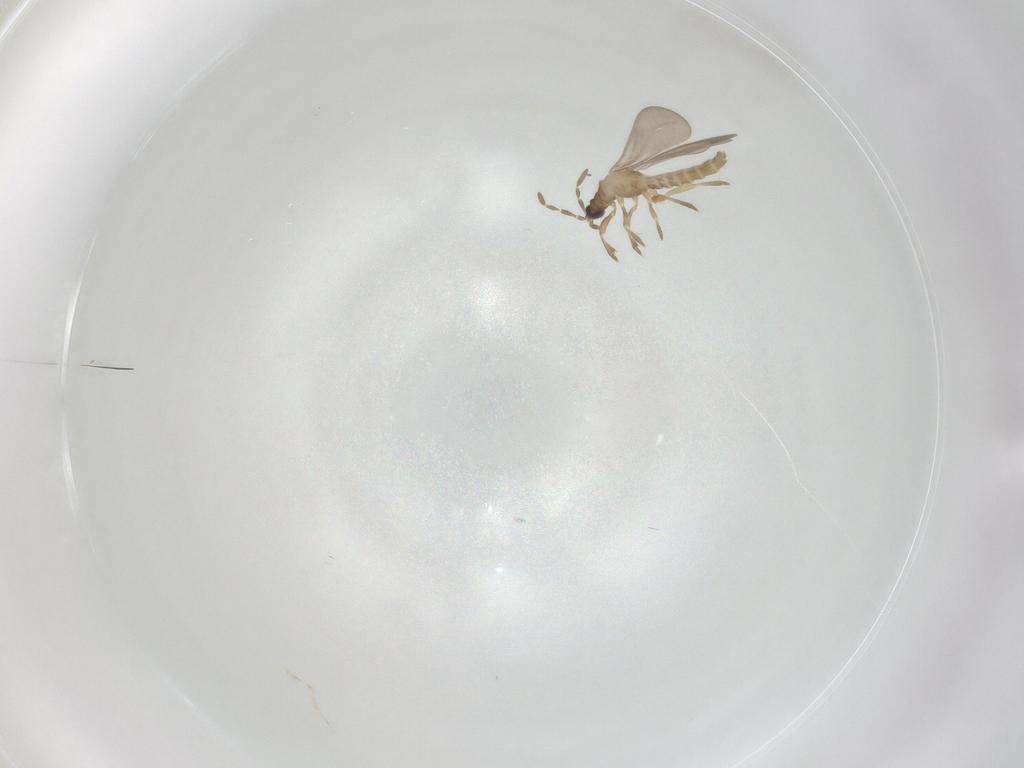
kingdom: Animalia
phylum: Arthropoda
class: Insecta
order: Hemiptera
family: Enicocephalidae
